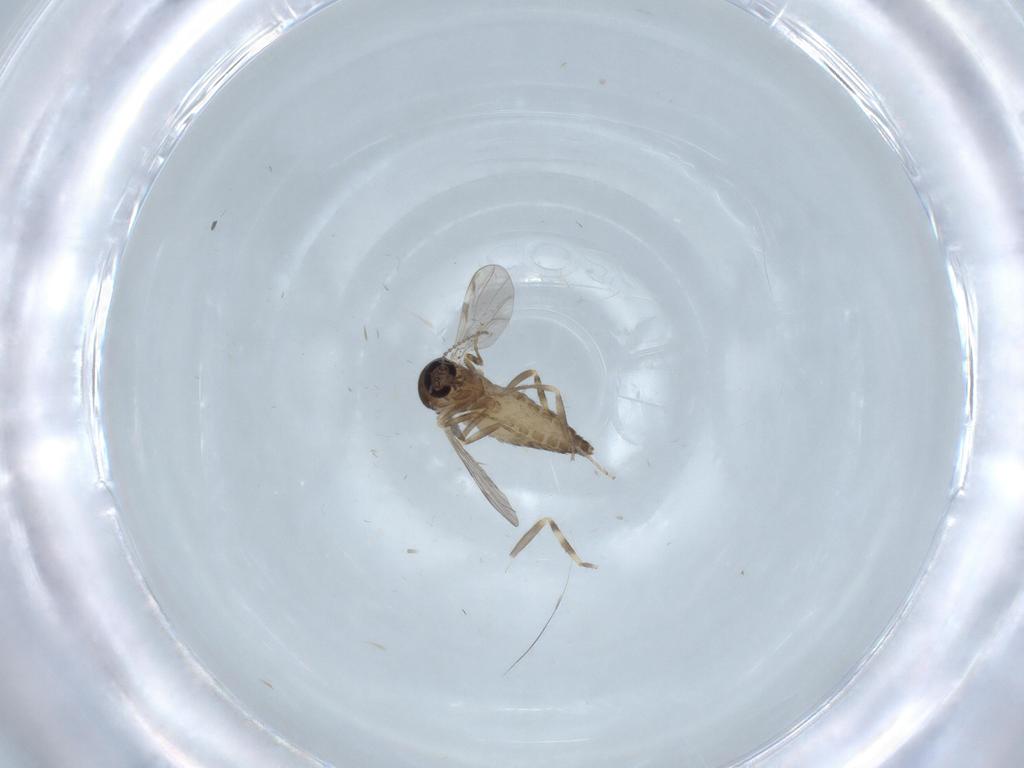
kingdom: Animalia
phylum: Arthropoda
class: Insecta
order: Diptera
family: Ceratopogonidae
